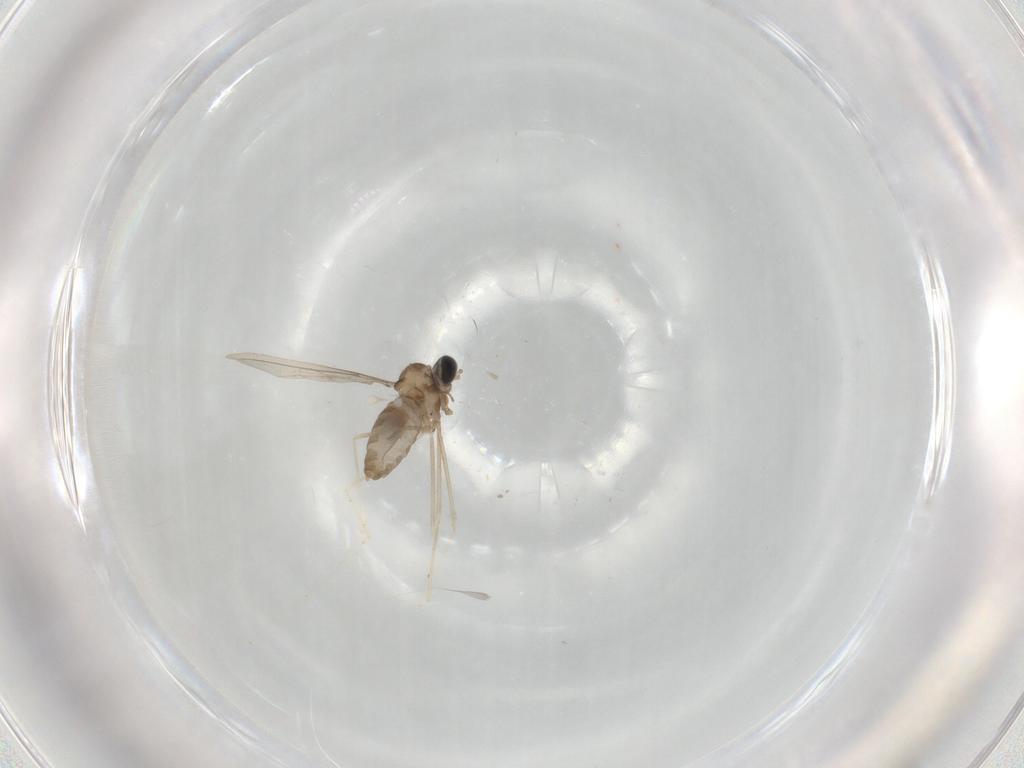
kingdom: Animalia
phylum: Arthropoda
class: Insecta
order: Diptera
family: Cecidomyiidae
